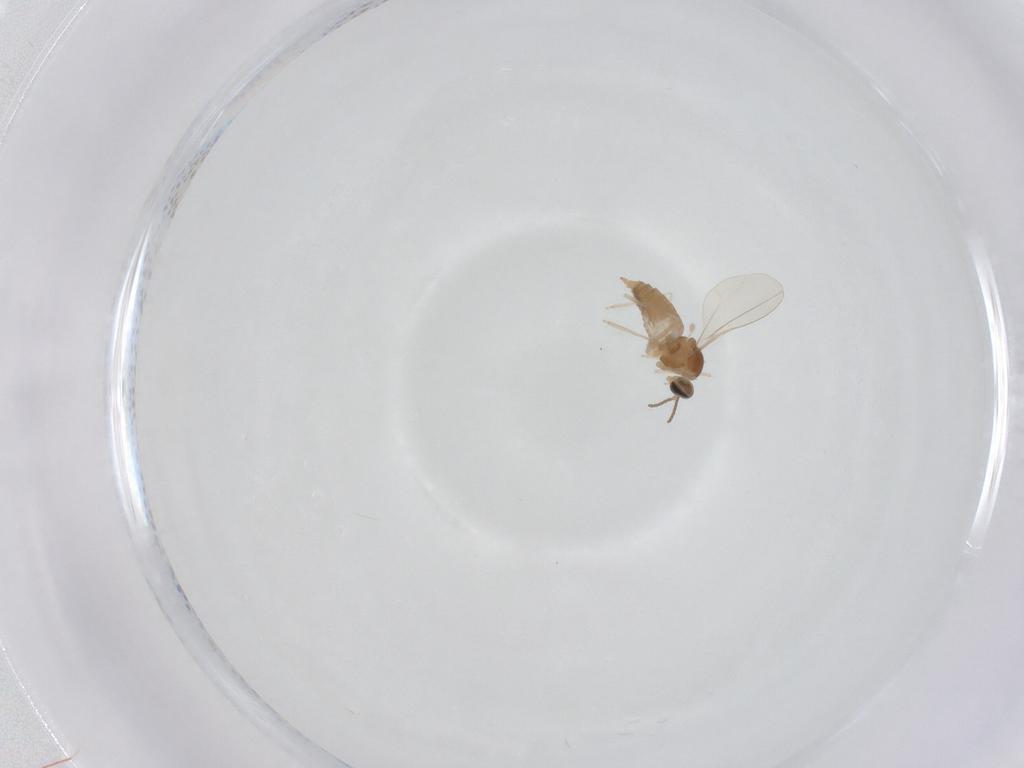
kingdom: Animalia
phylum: Arthropoda
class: Insecta
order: Diptera
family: Cecidomyiidae
